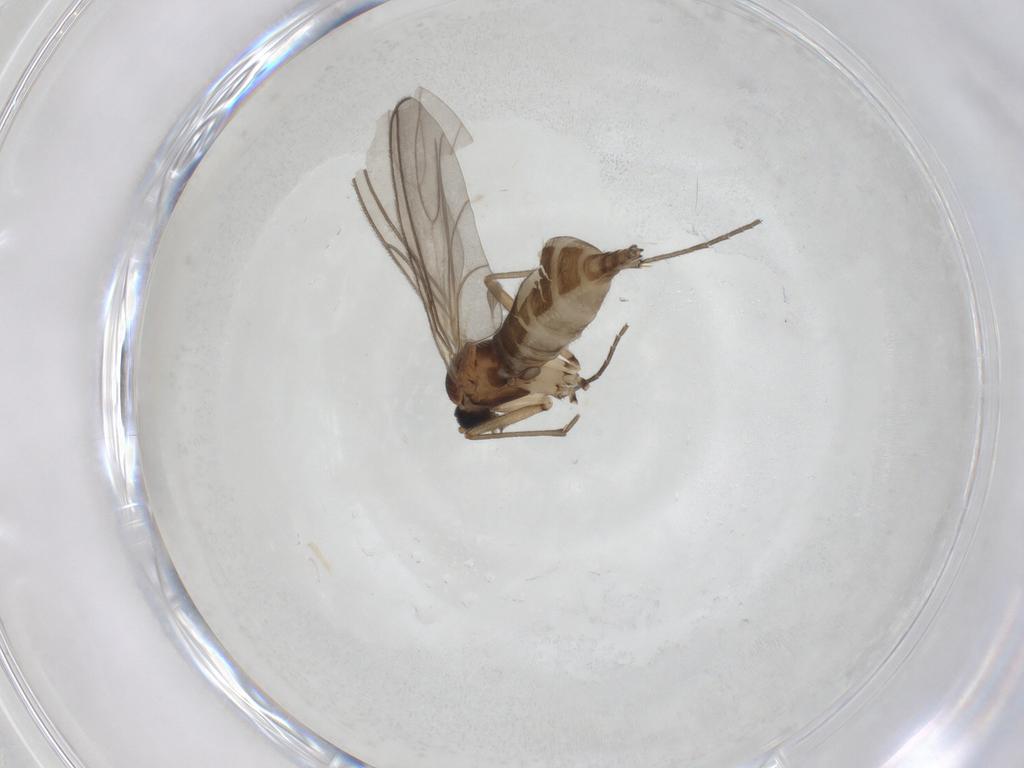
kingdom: Animalia
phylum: Arthropoda
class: Insecta
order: Diptera
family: Sciaridae
